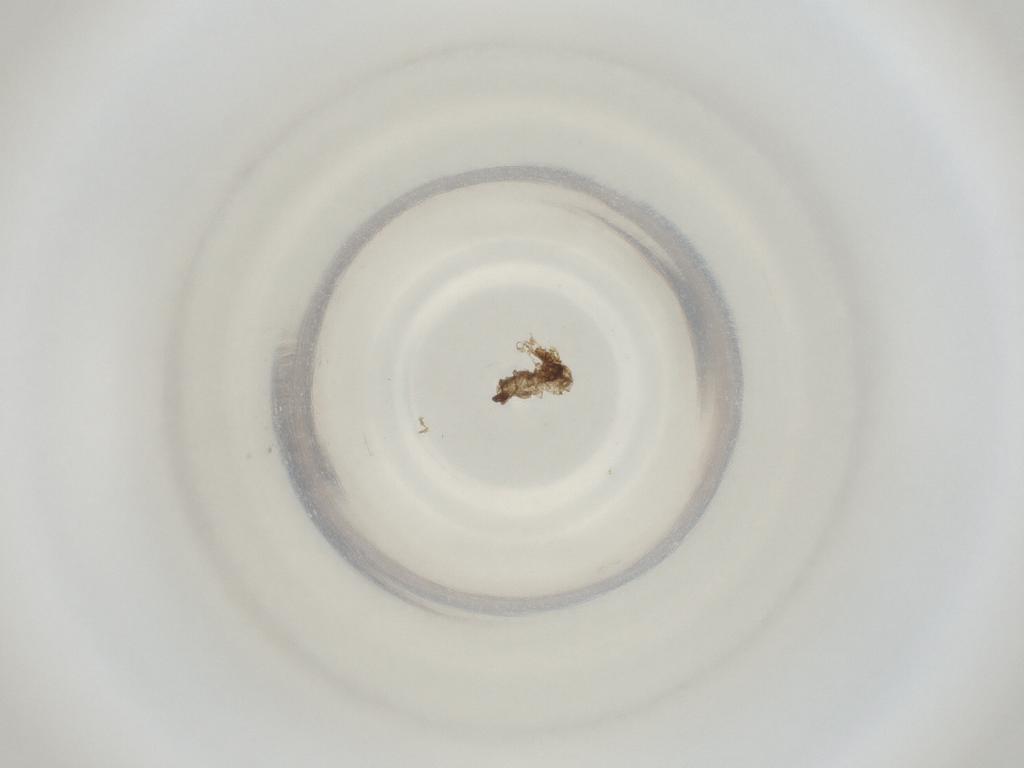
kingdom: Animalia
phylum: Arthropoda
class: Insecta
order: Diptera
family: Cecidomyiidae
